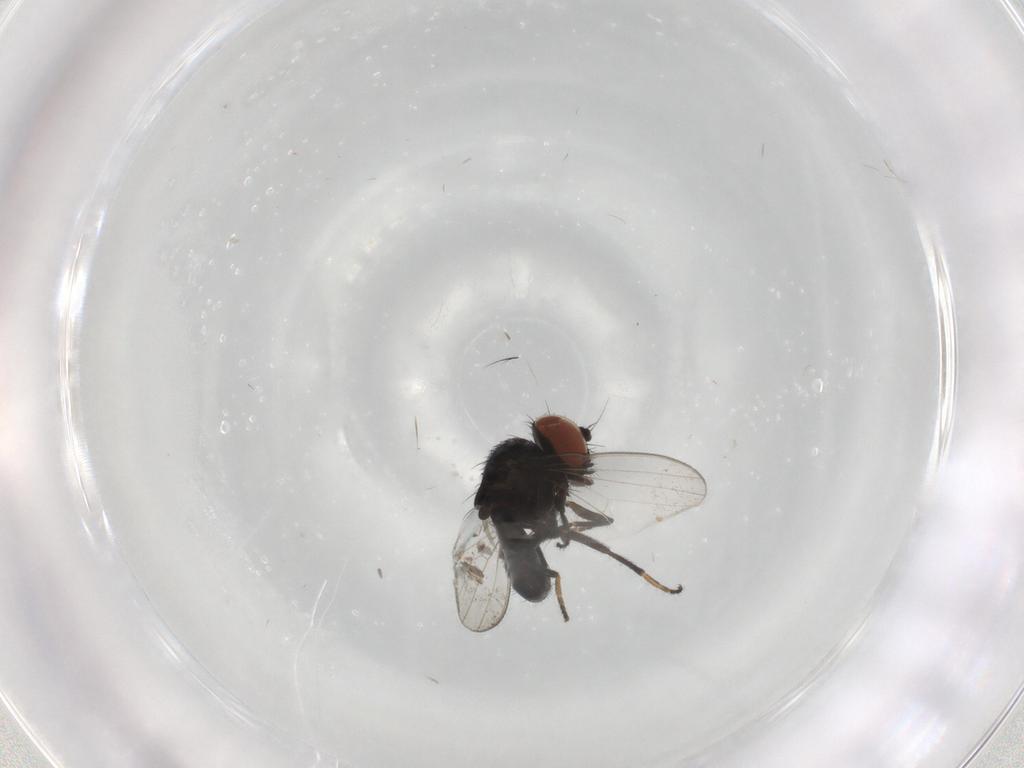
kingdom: Animalia
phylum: Arthropoda
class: Insecta
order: Diptera
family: Milichiidae
